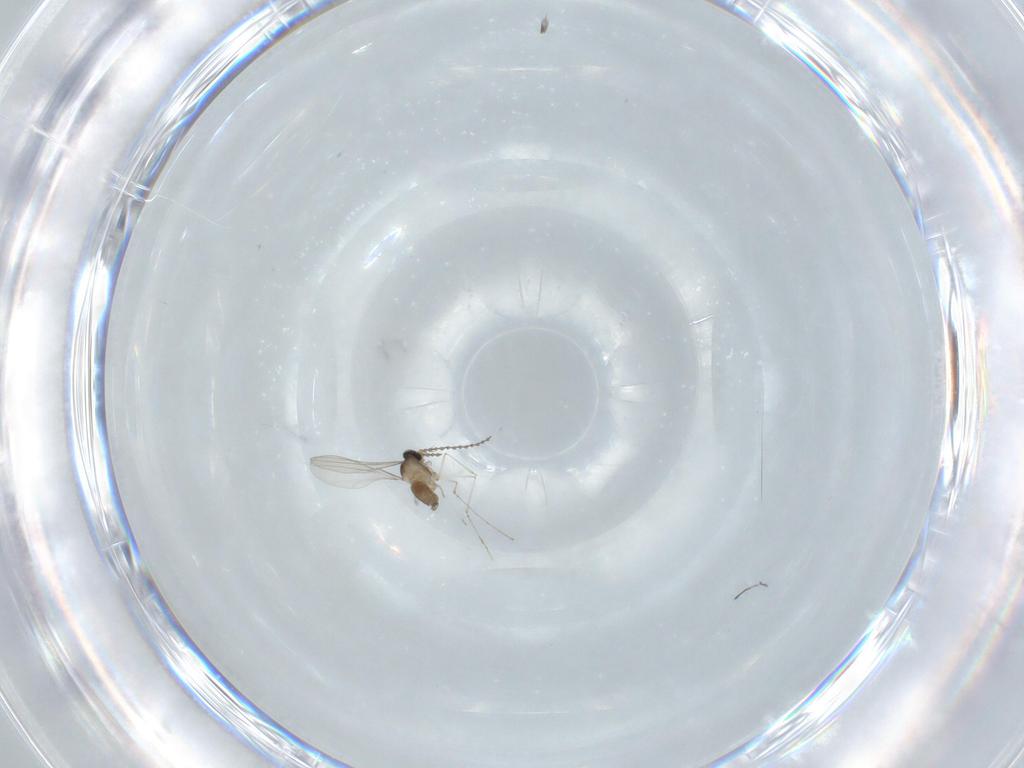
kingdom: Animalia
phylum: Arthropoda
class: Insecta
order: Diptera
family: Cecidomyiidae
